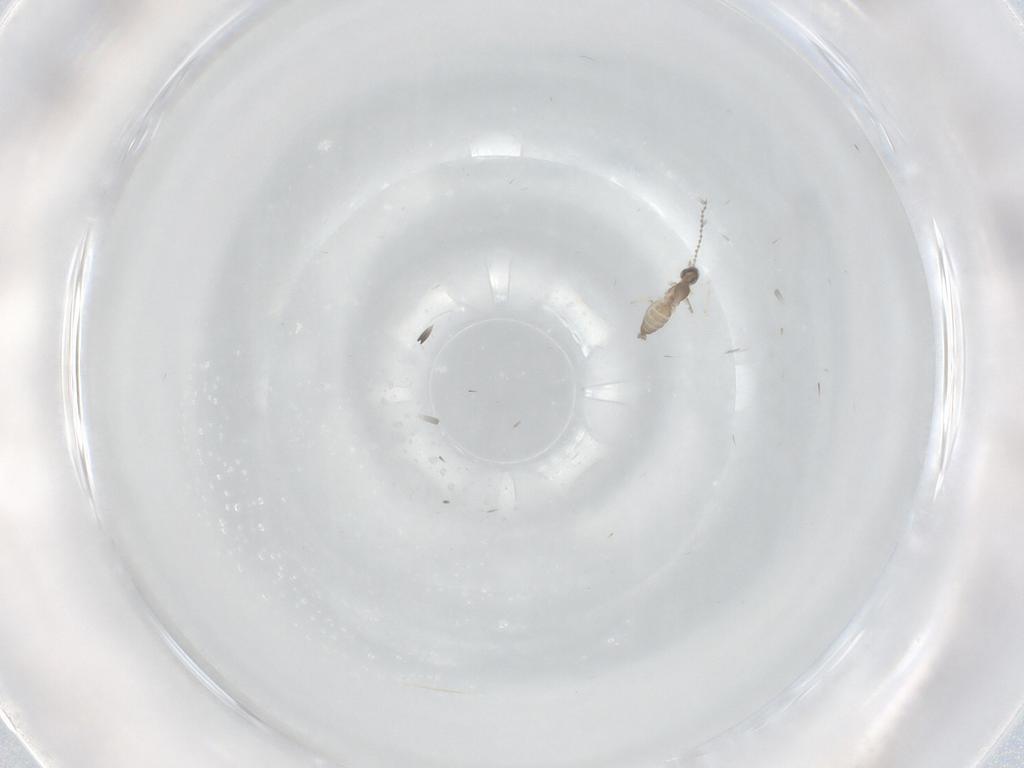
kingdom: Animalia
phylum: Arthropoda
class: Insecta
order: Diptera
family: Cecidomyiidae
